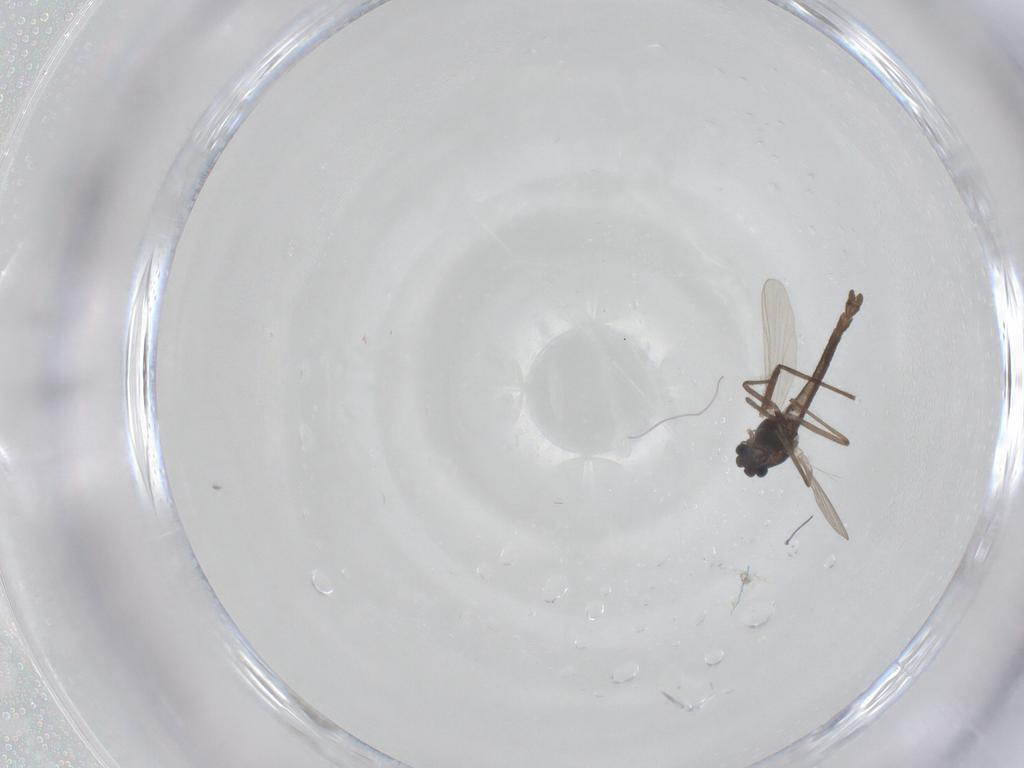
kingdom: Animalia
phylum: Arthropoda
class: Insecta
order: Diptera
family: Chironomidae
